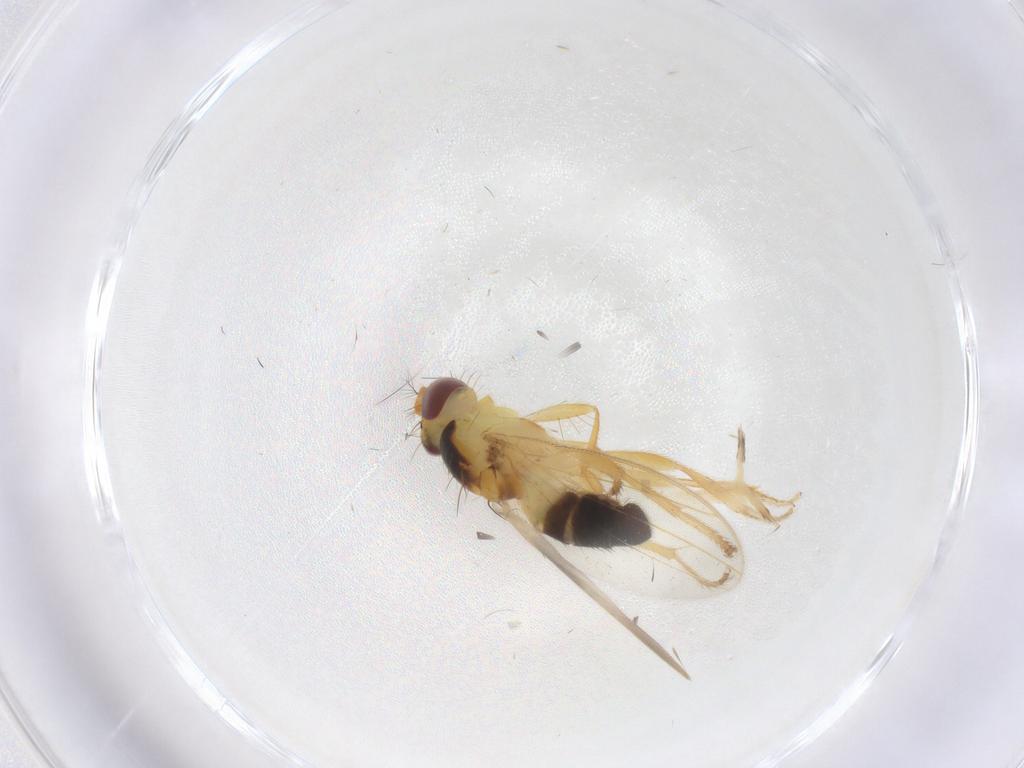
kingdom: Animalia
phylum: Arthropoda
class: Insecta
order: Diptera
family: Periscelididae
